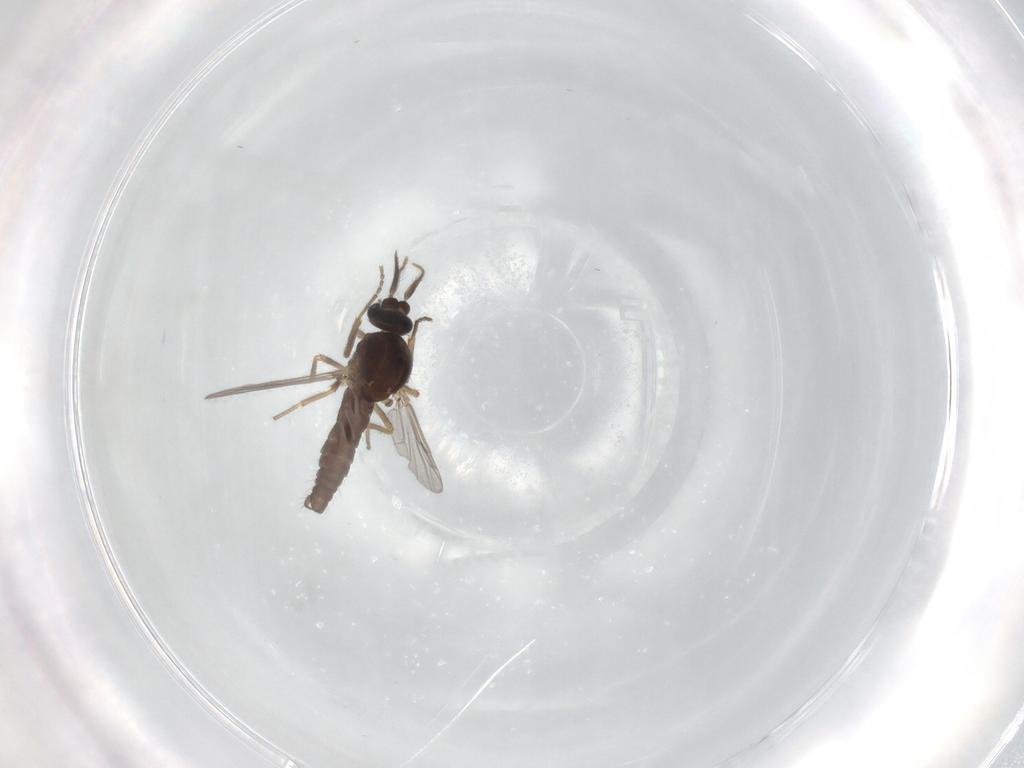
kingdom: Animalia
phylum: Arthropoda
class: Insecta
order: Diptera
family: Ceratopogonidae
